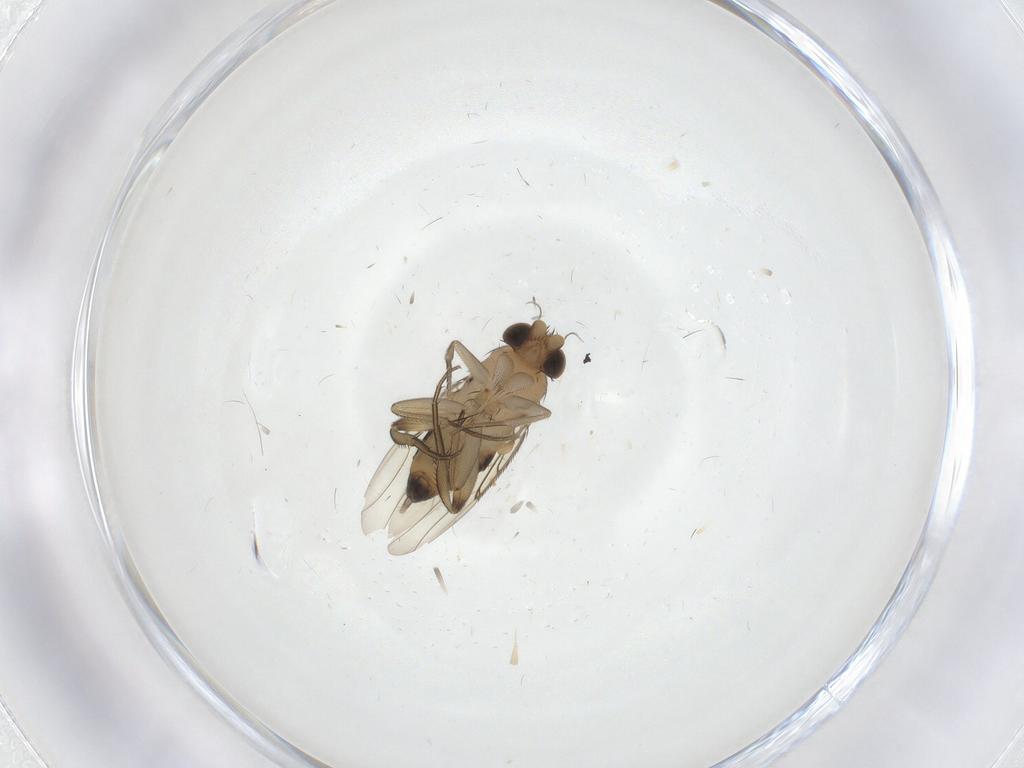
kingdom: Animalia
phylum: Arthropoda
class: Insecta
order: Diptera
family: Phoridae
